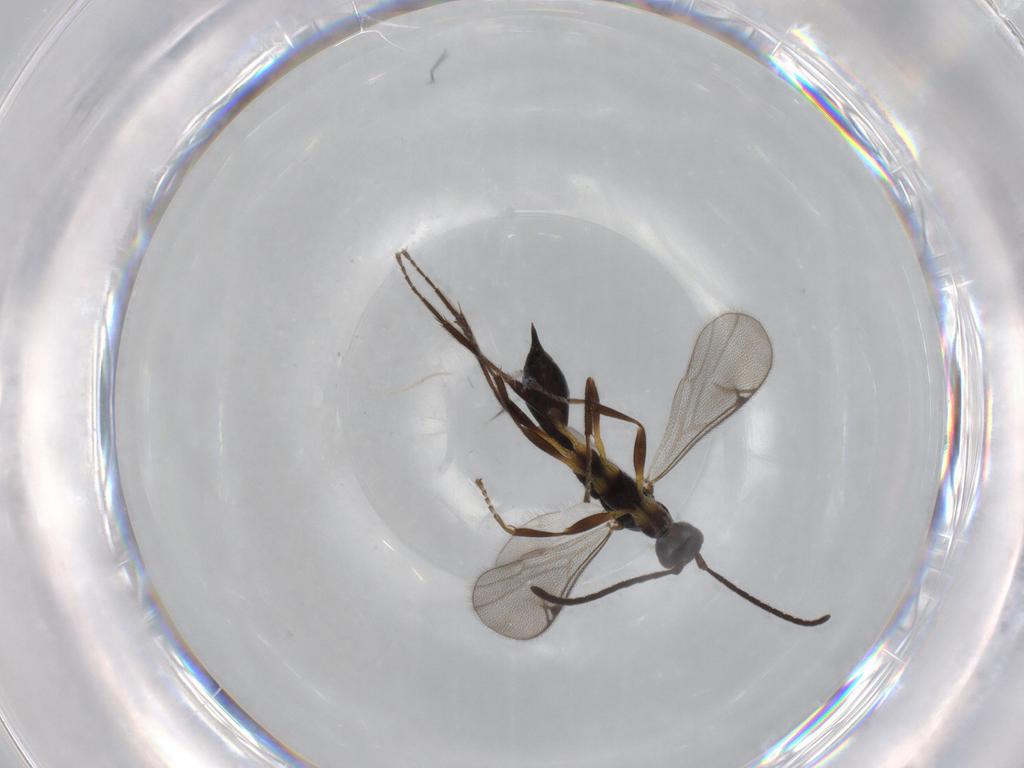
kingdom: Animalia
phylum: Arthropoda
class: Insecta
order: Hymenoptera
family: Proctotrupidae
